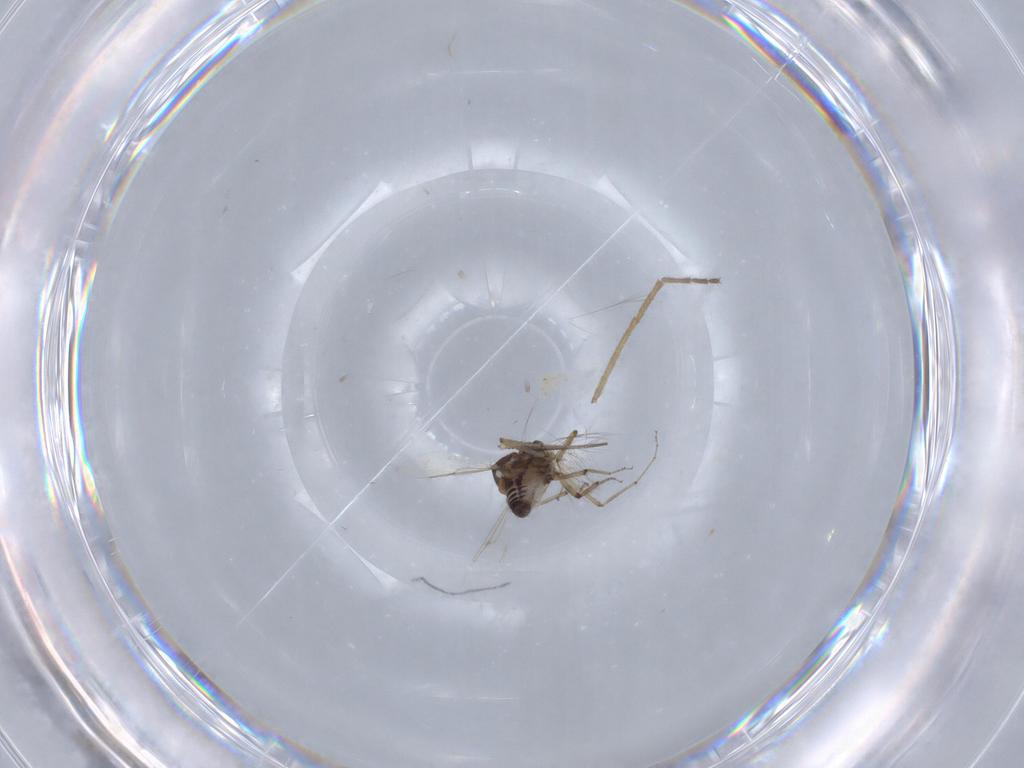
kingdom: Animalia
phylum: Arthropoda
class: Insecta
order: Diptera
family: Ceratopogonidae
